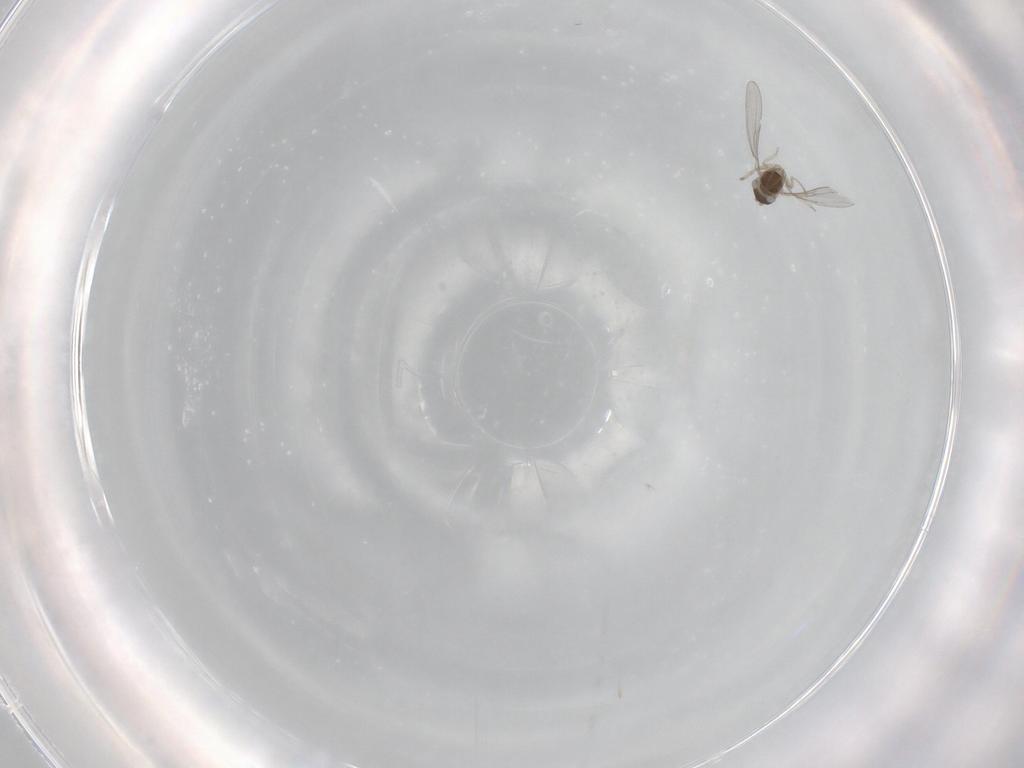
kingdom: Animalia
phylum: Arthropoda
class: Insecta
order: Diptera
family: Cecidomyiidae
